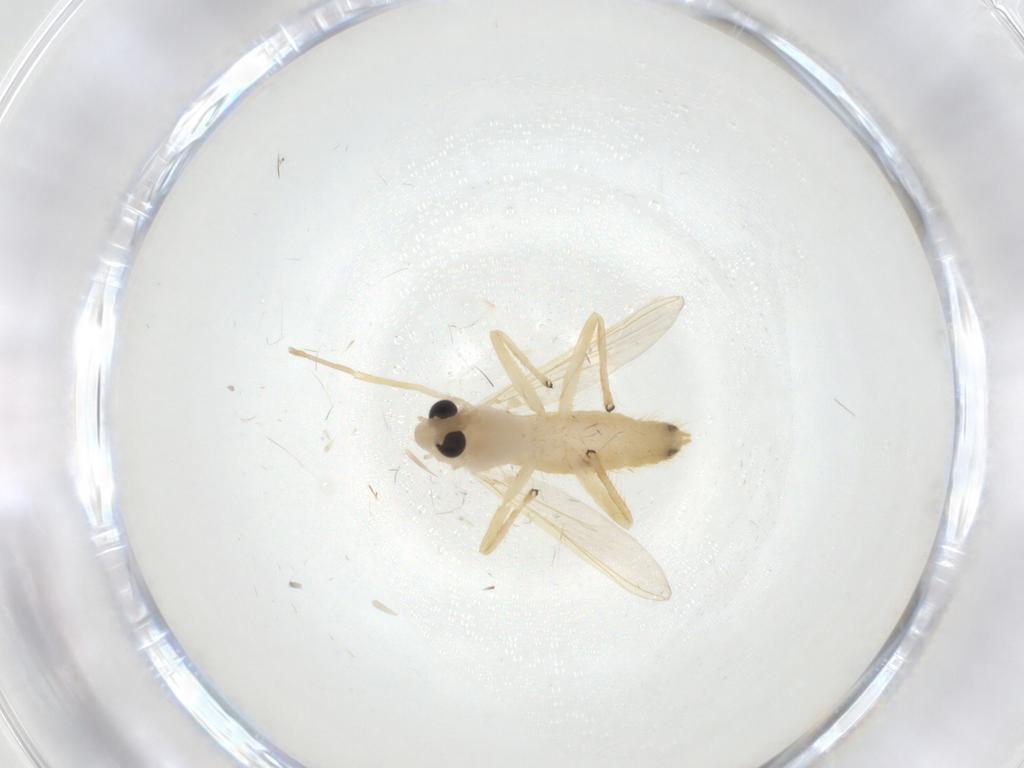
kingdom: Animalia
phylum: Arthropoda
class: Insecta
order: Diptera
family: Chironomidae
